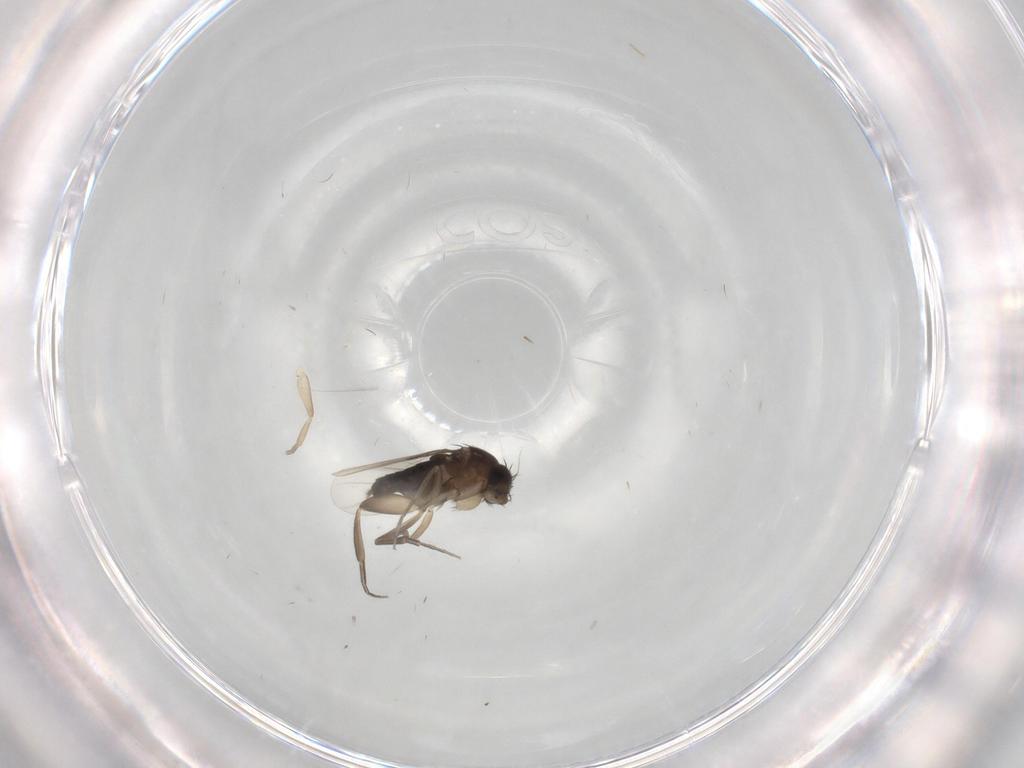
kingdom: Animalia
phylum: Arthropoda
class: Insecta
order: Diptera
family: Phoridae
